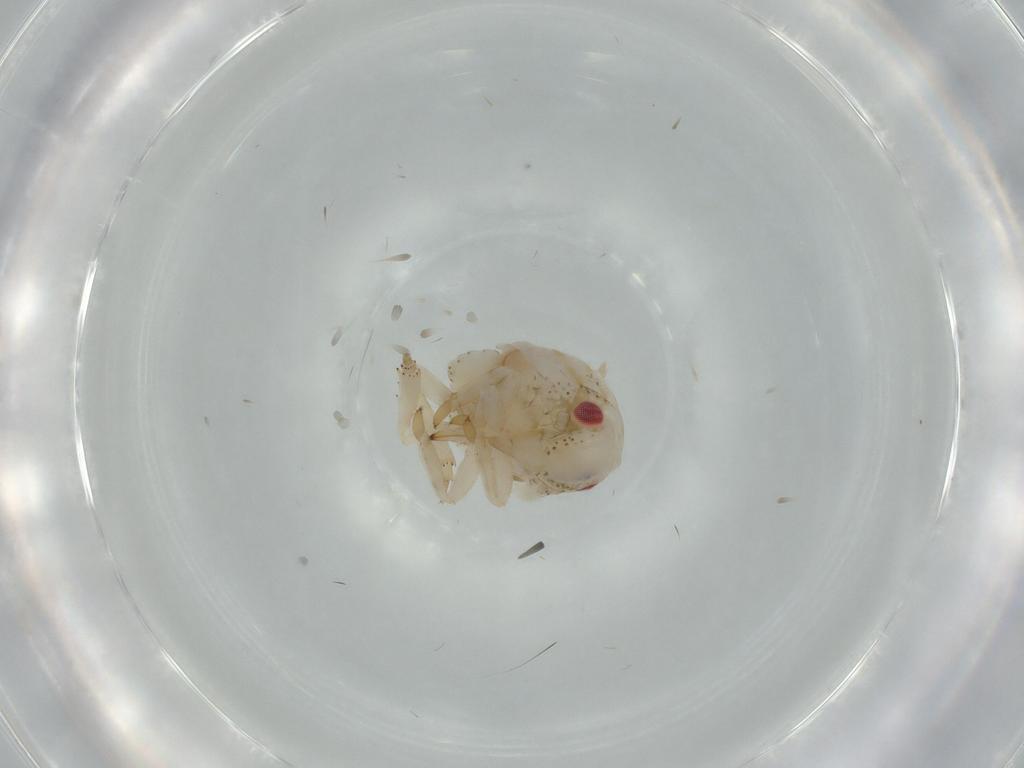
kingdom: Animalia
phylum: Arthropoda
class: Insecta
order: Hemiptera
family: Acanaloniidae
